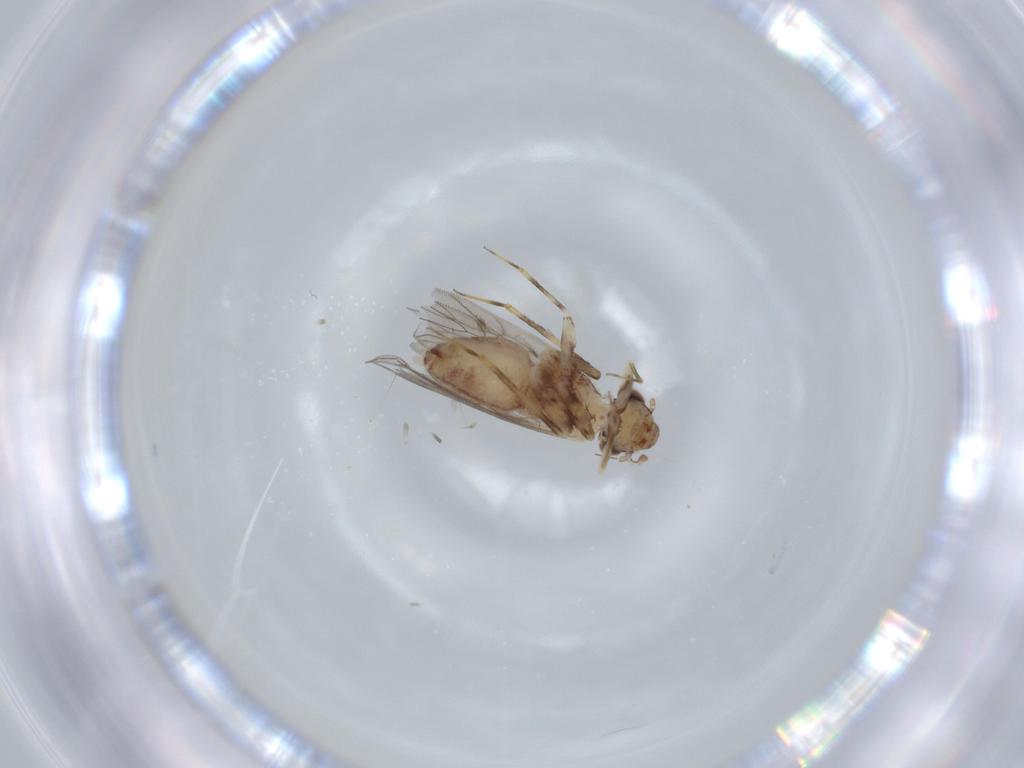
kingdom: Animalia
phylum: Arthropoda
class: Insecta
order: Psocodea
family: Lepidopsocidae
